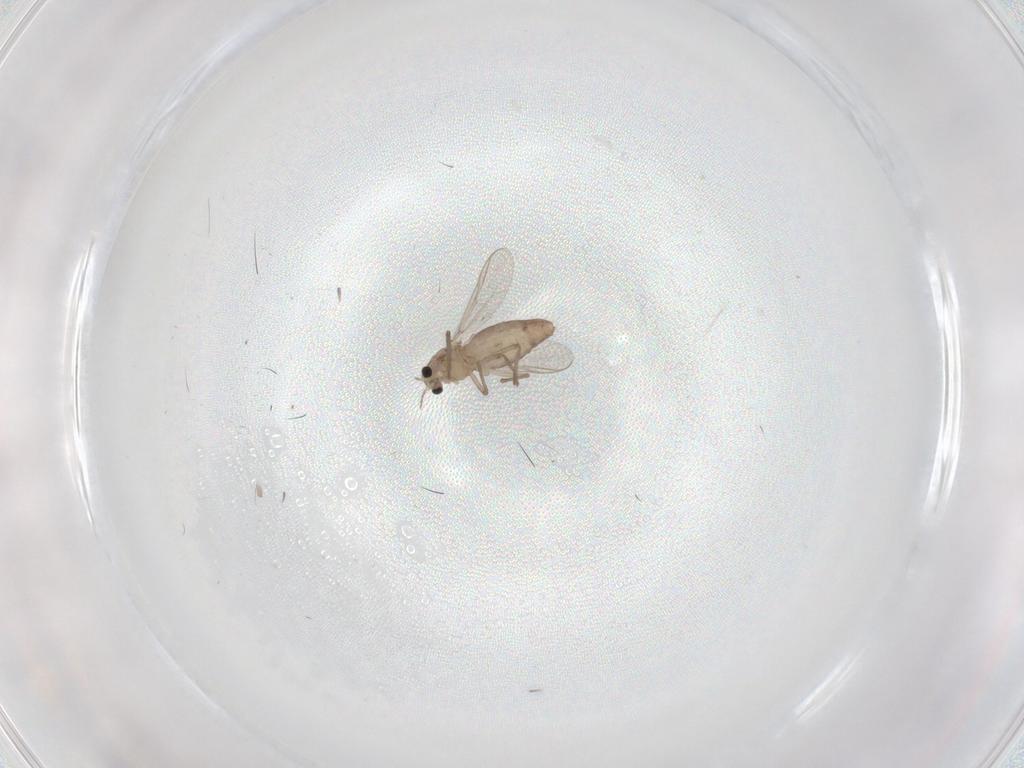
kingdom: Animalia
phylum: Arthropoda
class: Insecta
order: Diptera
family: Chironomidae
